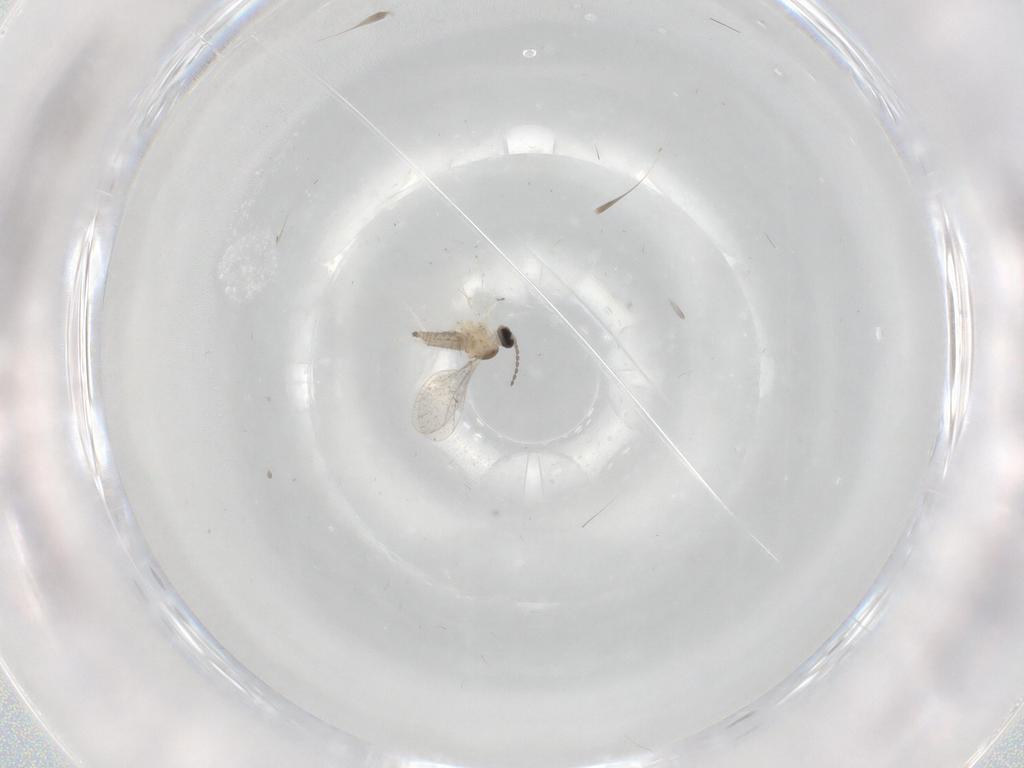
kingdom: Animalia
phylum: Arthropoda
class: Insecta
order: Diptera
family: Cecidomyiidae
